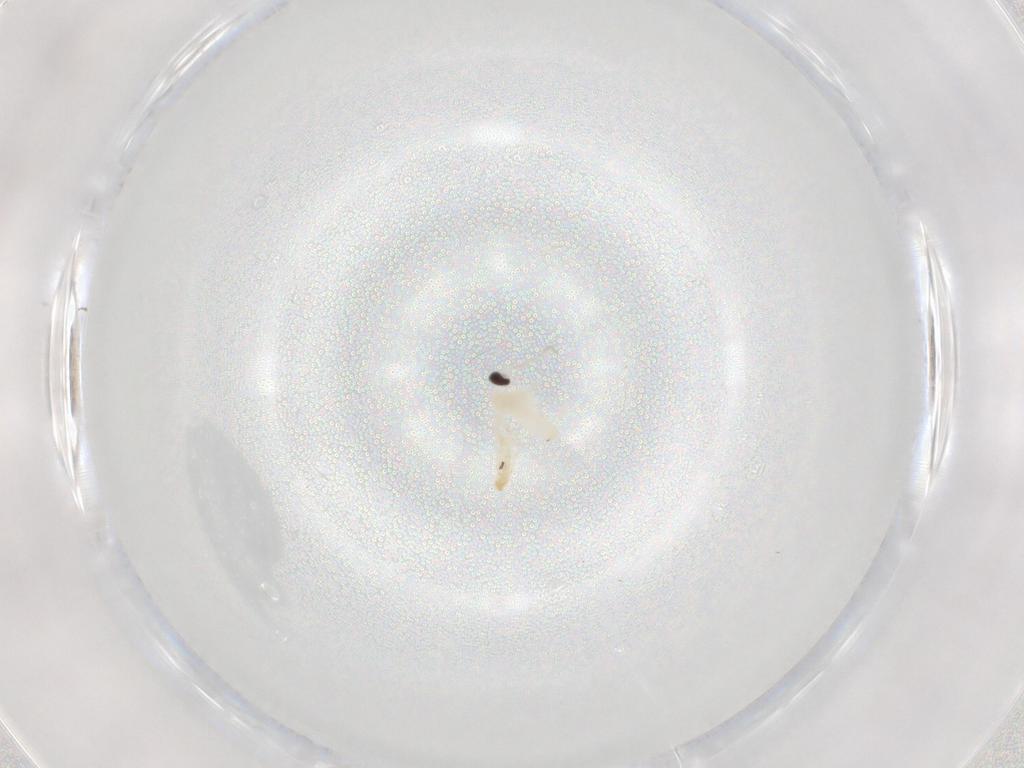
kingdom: Animalia
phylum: Arthropoda
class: Insecta
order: Diptera
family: Cecidomyiidae
